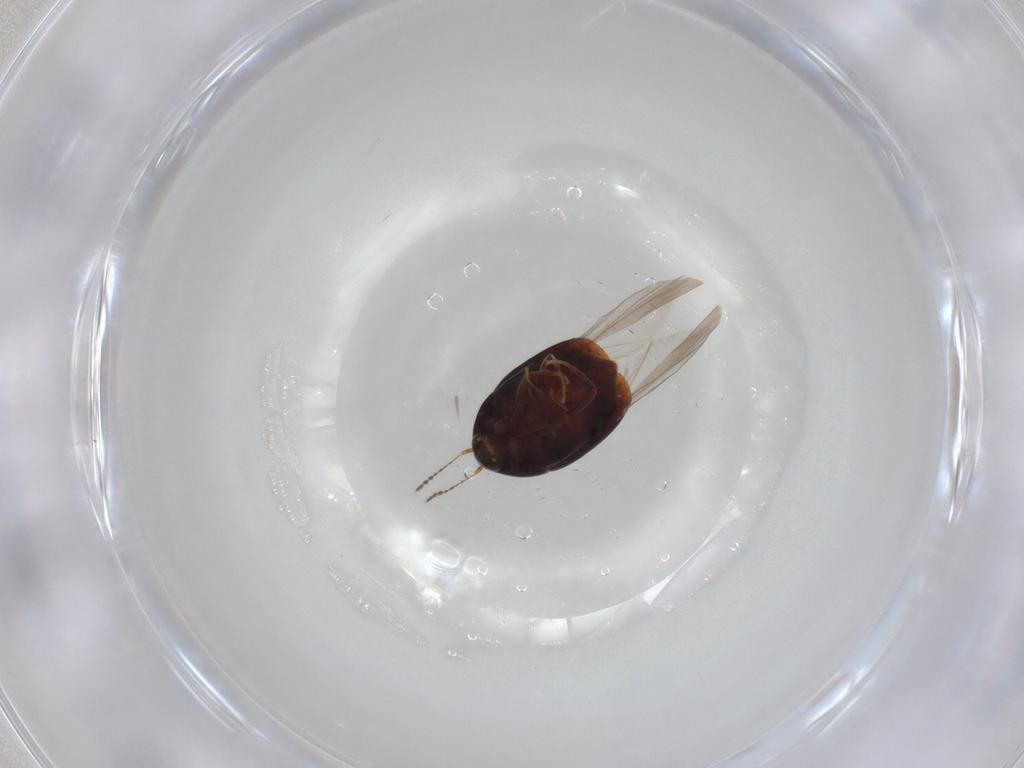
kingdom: Animalia
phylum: Arthropoda
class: Insecta
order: Coleoptera
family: Staphylinidae
